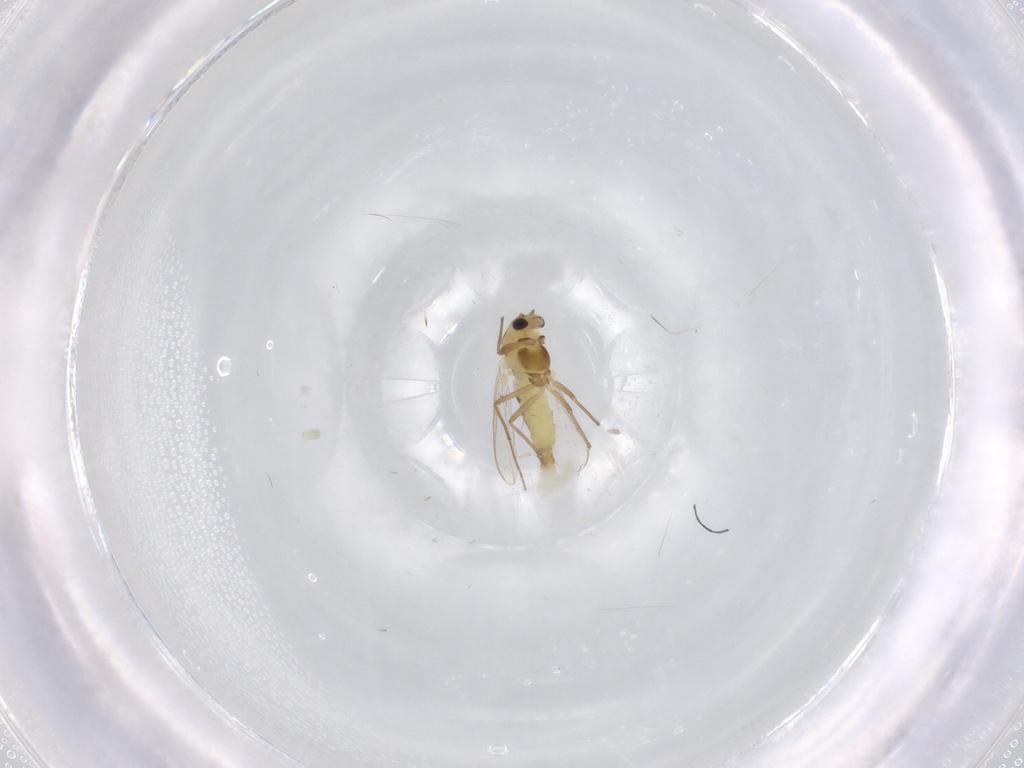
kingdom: Animalia
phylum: Arthropoda
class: Insecta
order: Diptera
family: Chironomidae
